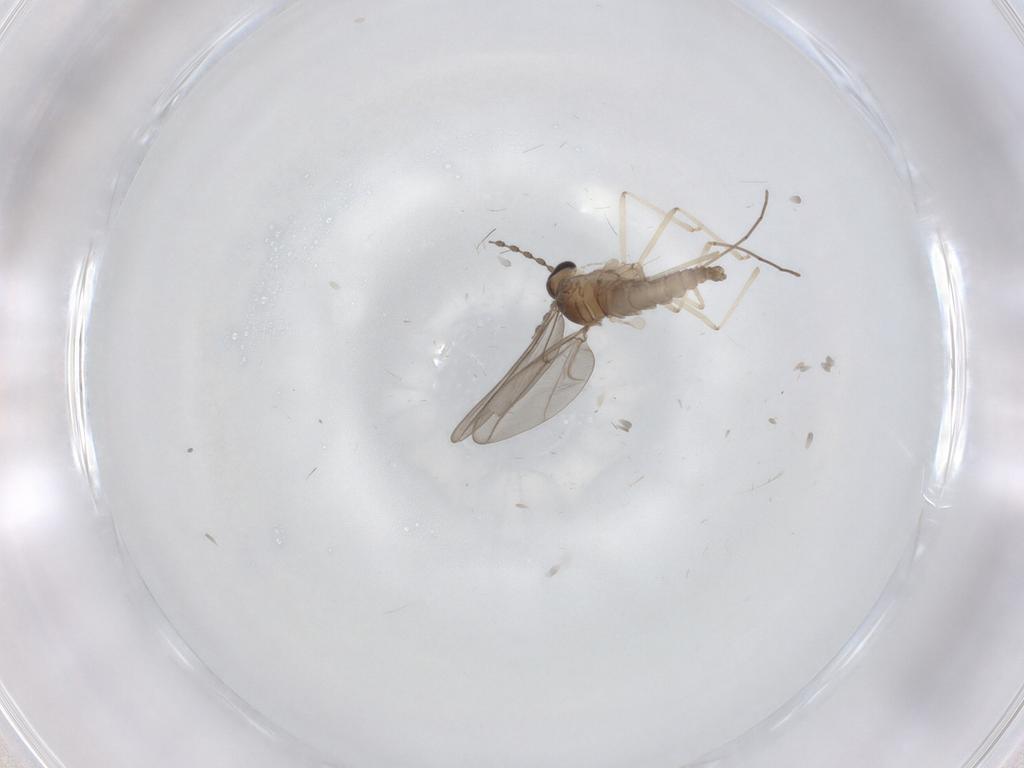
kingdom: Animalia
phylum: Arthropoda
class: Insecta
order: Diptera
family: Cecidomyiidae
